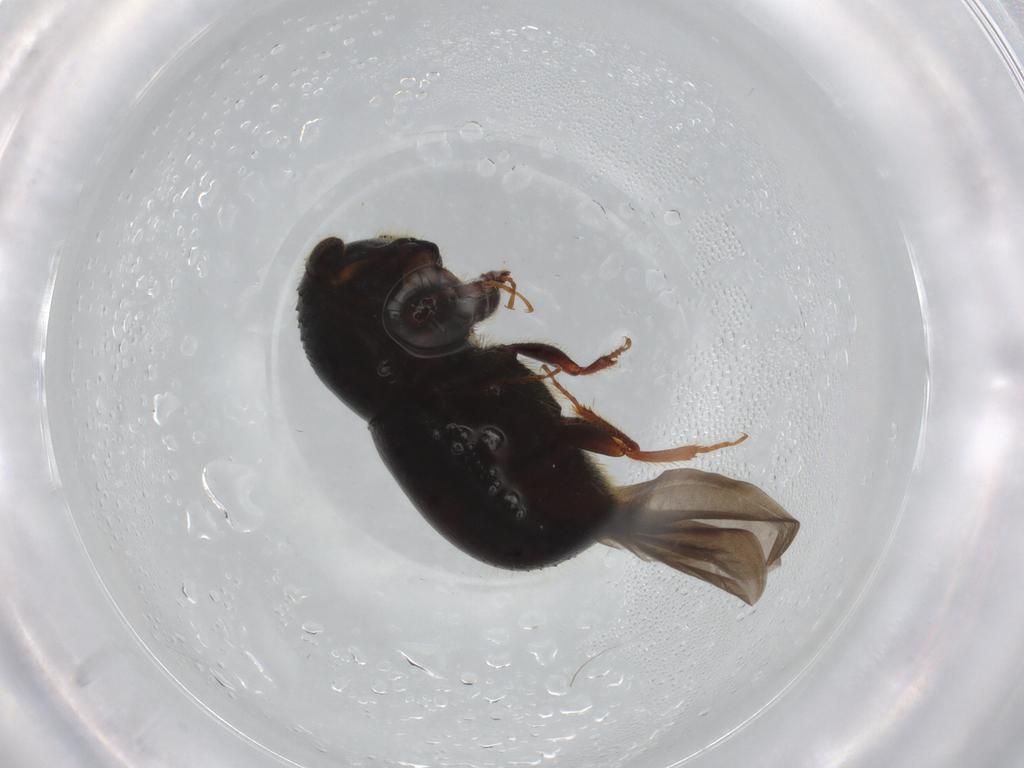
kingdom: Animalia
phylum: Arthropoda
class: Insecta
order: Coleoptera
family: Curculionidae
